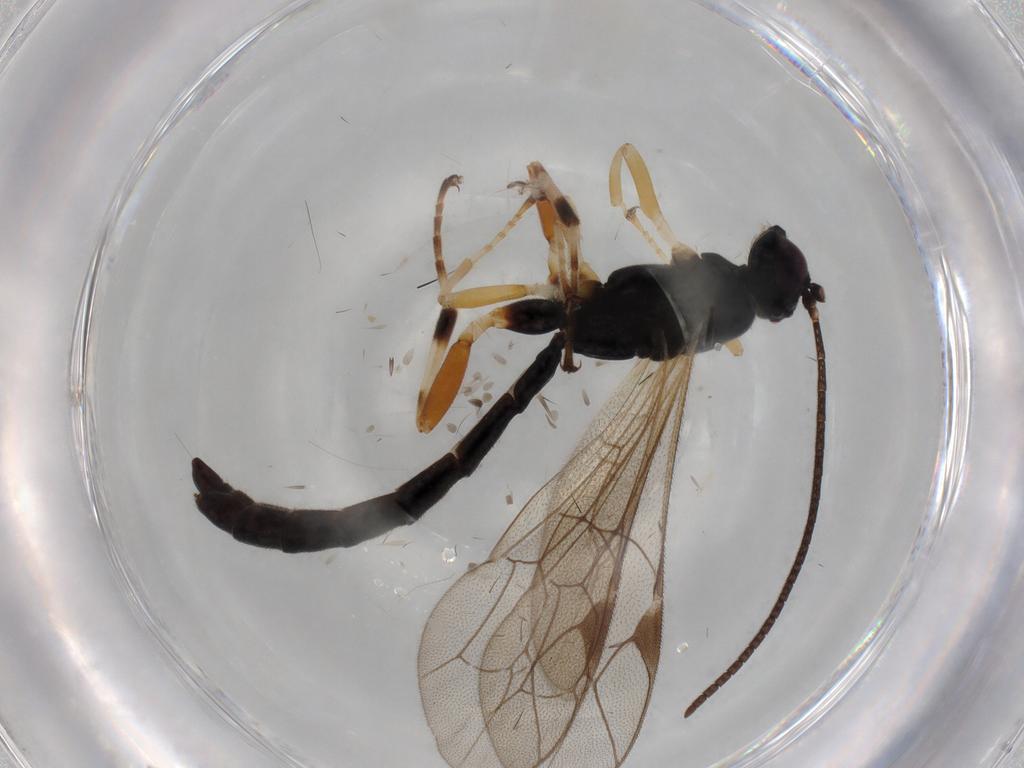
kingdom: Animalia
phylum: Arthropoda
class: Insecta
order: Hymenoptera
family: Ichneumonidae
